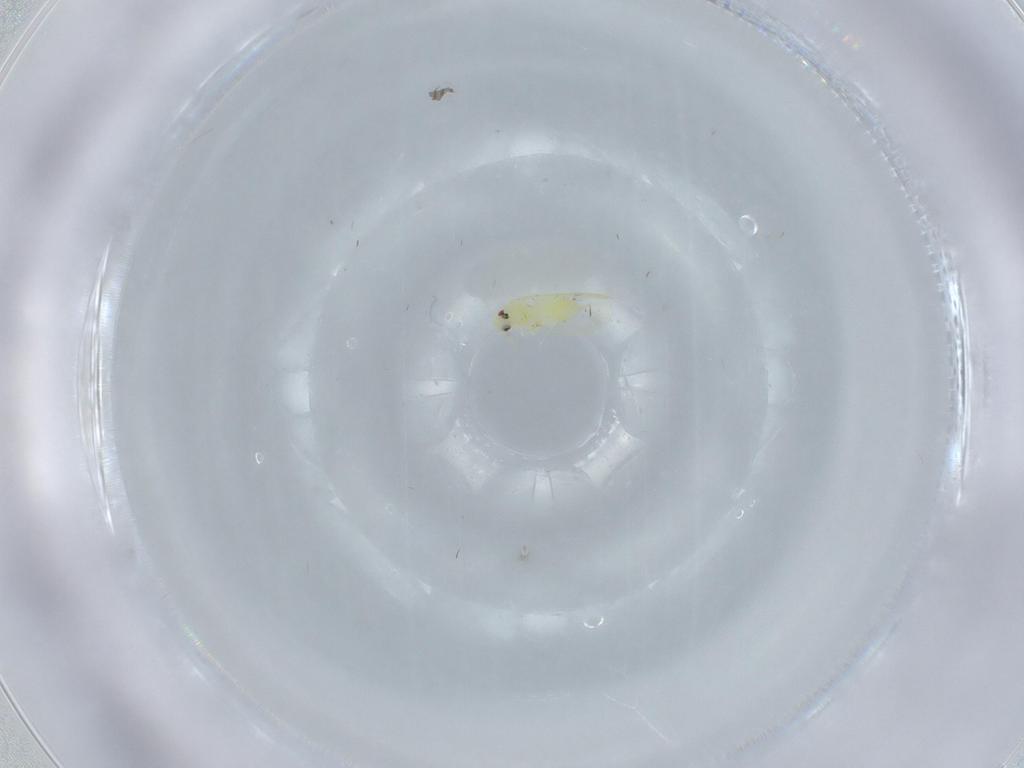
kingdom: Animalia
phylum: Arthropoda
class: Insecta
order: Hemiptera
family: Aleyrodidae
